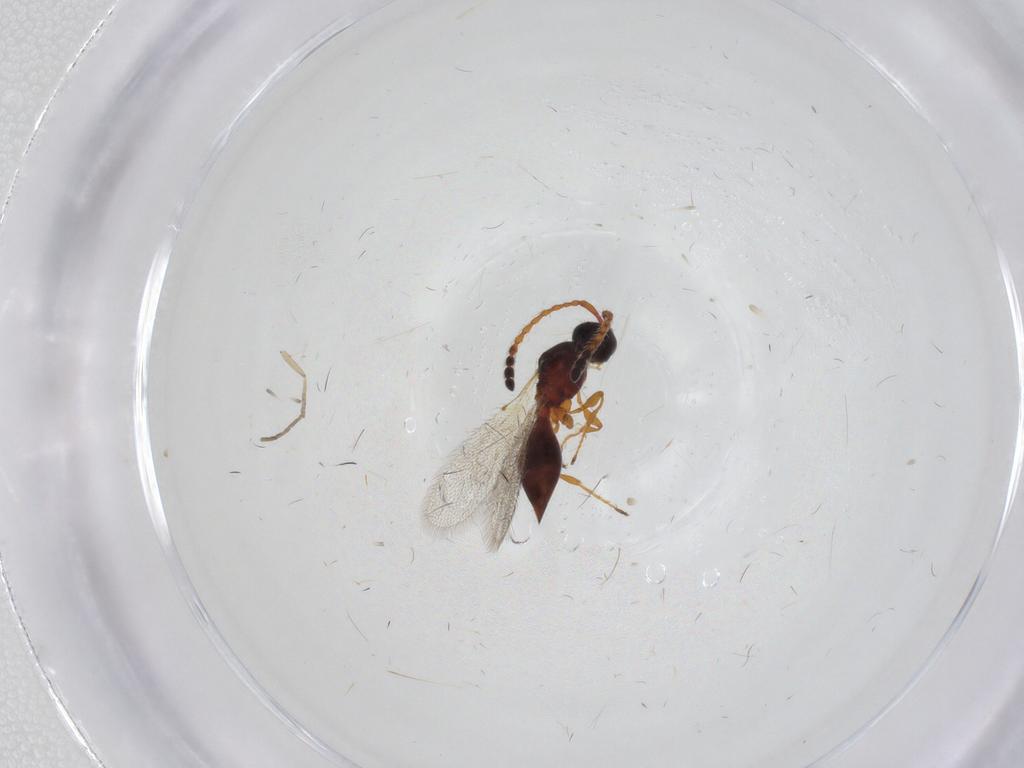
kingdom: Animalia
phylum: Arthropoda
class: Insecta
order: Hymenoptera
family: Diapriidae
